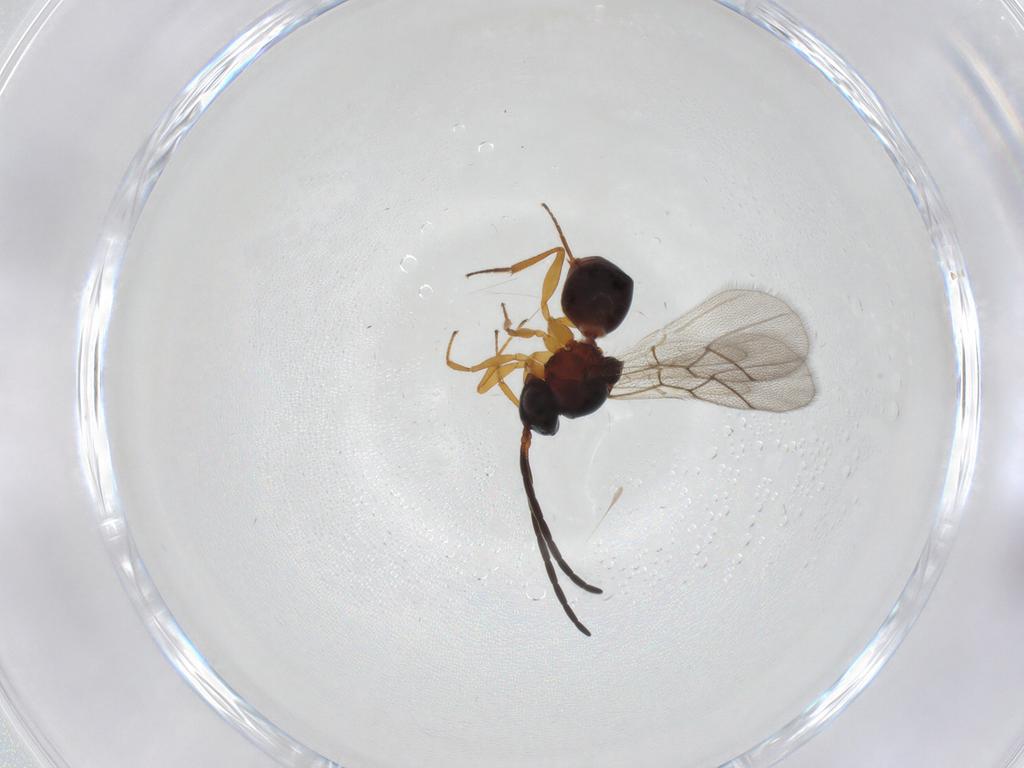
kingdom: Animalia
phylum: Arthropoda
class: Insecta
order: Hymenoptera
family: Figitidae
